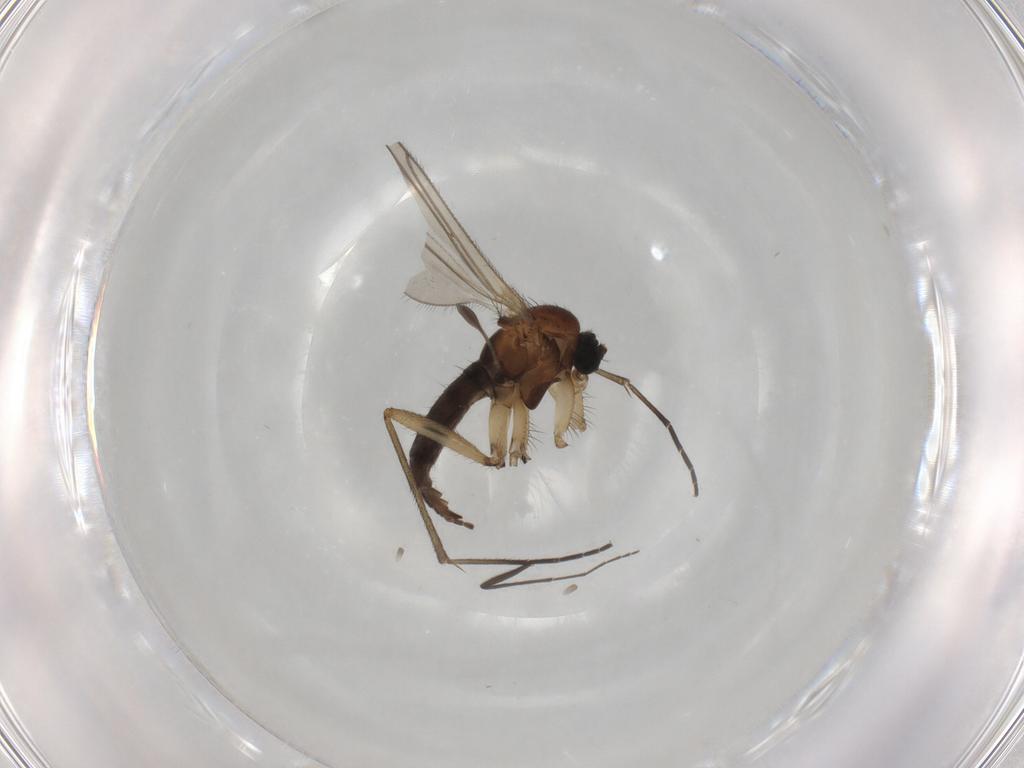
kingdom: Animalia
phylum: Arthropoda
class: Insecta
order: Diptera
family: Sciaridae
